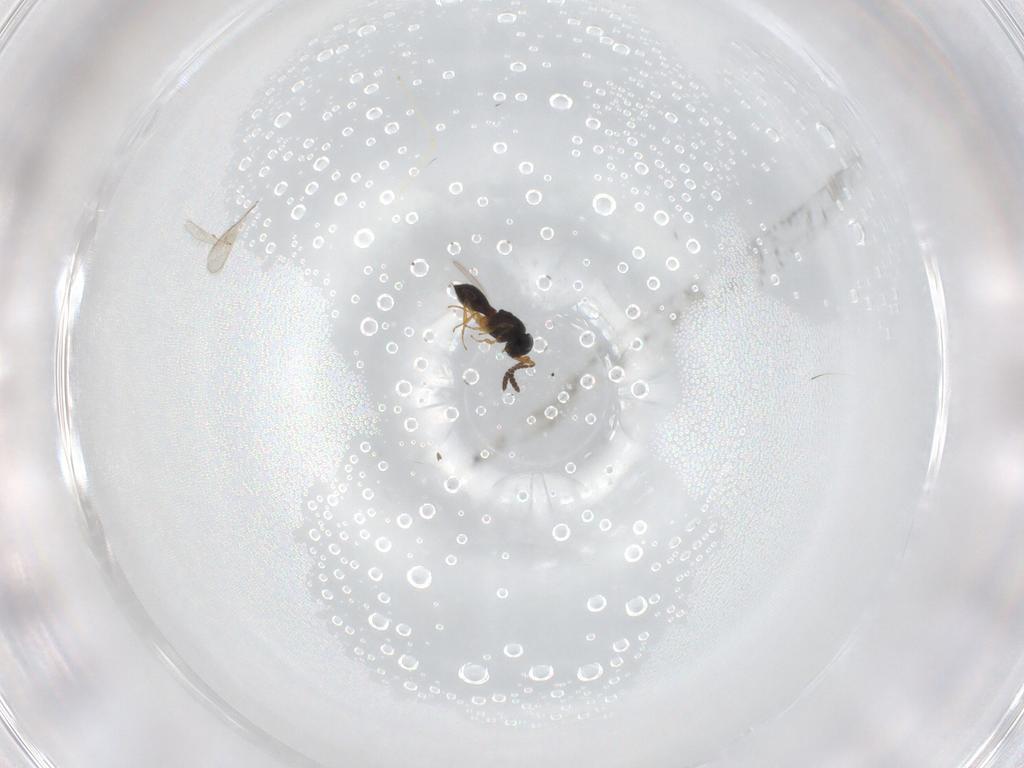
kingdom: Animalia
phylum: Arthropoda
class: Insecta
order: Hymenoptera
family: Scelionidae
